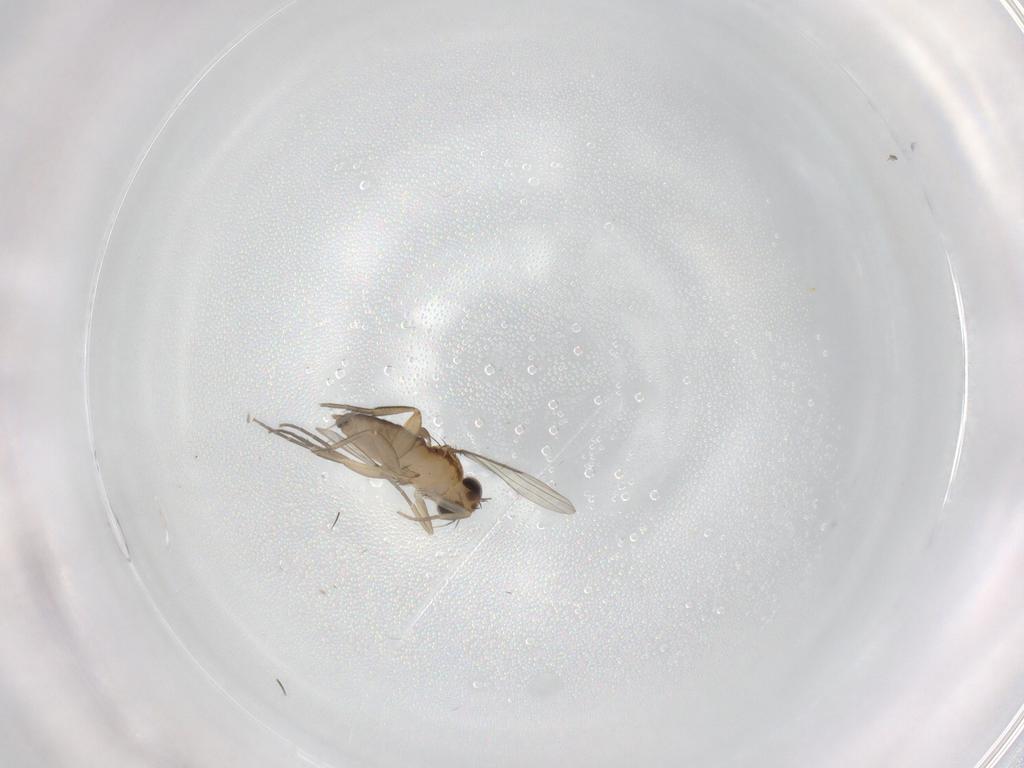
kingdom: Animalia
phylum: Arthropoda
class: Insecta
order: Diptera
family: Phoridae
